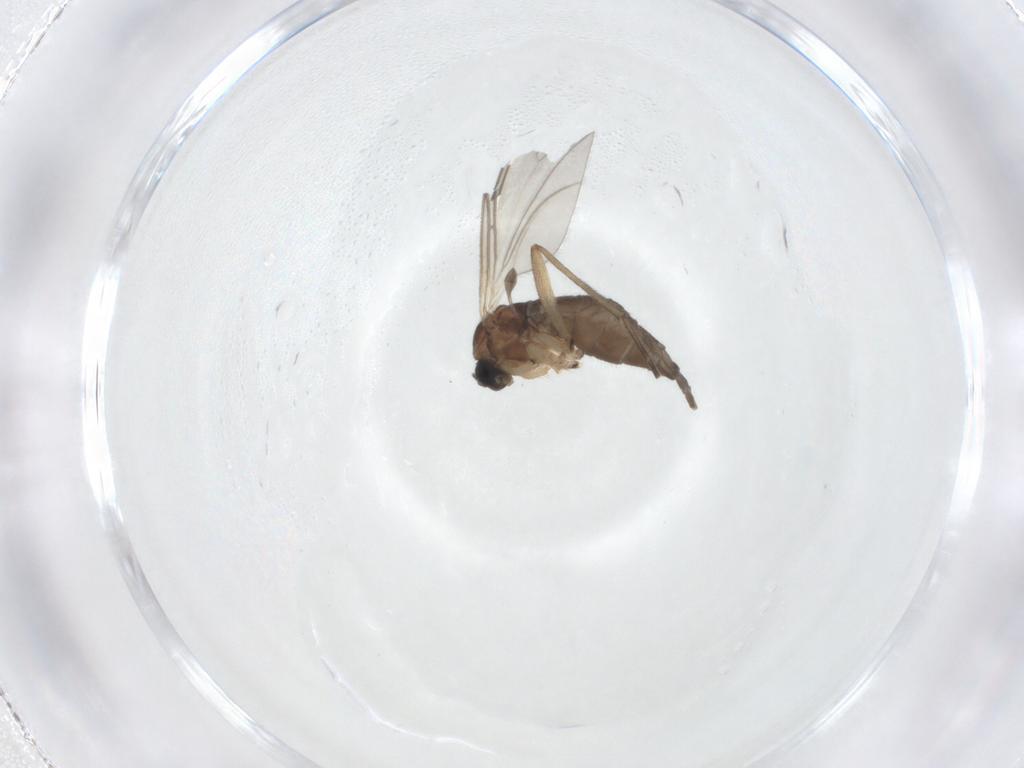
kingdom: Animalia
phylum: Arthropoda
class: Insecta
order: Diptera
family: Sciaridae
